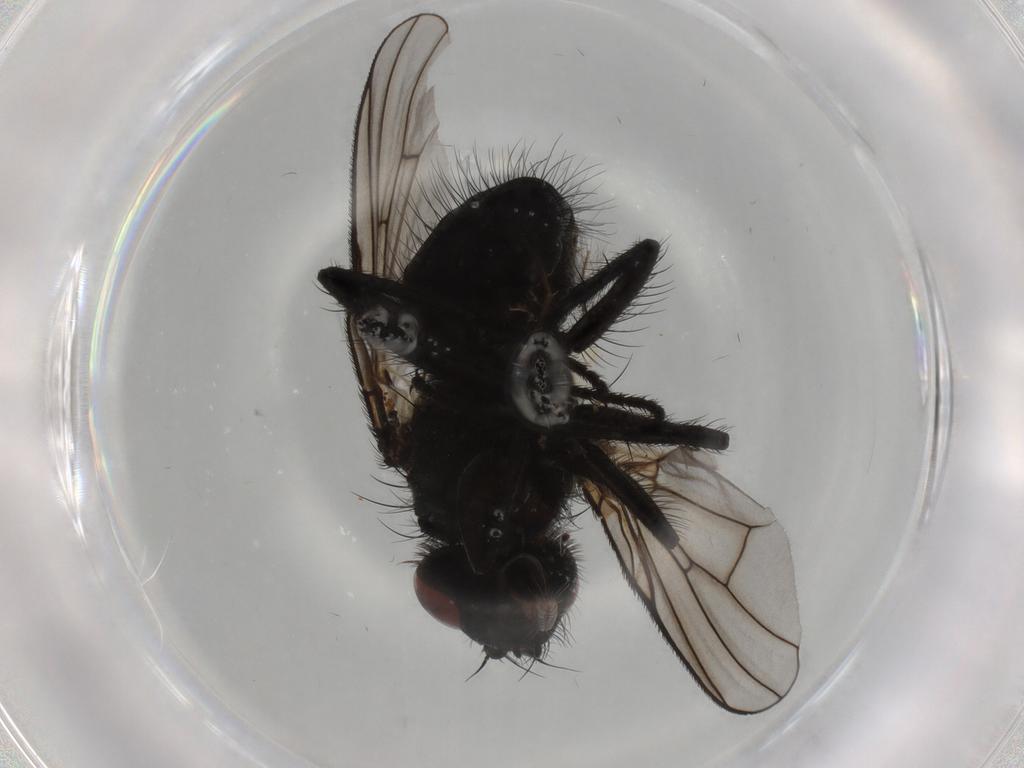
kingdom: Animalia
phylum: Arthropoda
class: Insecta
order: Diptera
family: Chironomidae
